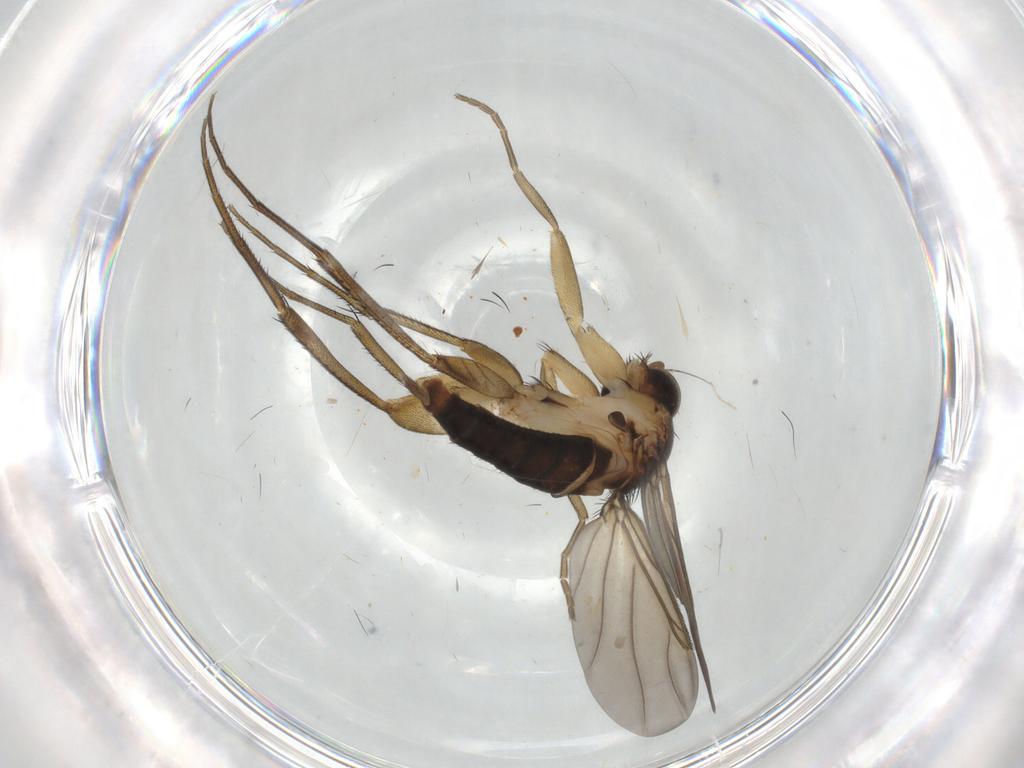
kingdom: Animalia
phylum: Arthropoda
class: Insecta
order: Diptera
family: Phoridae
